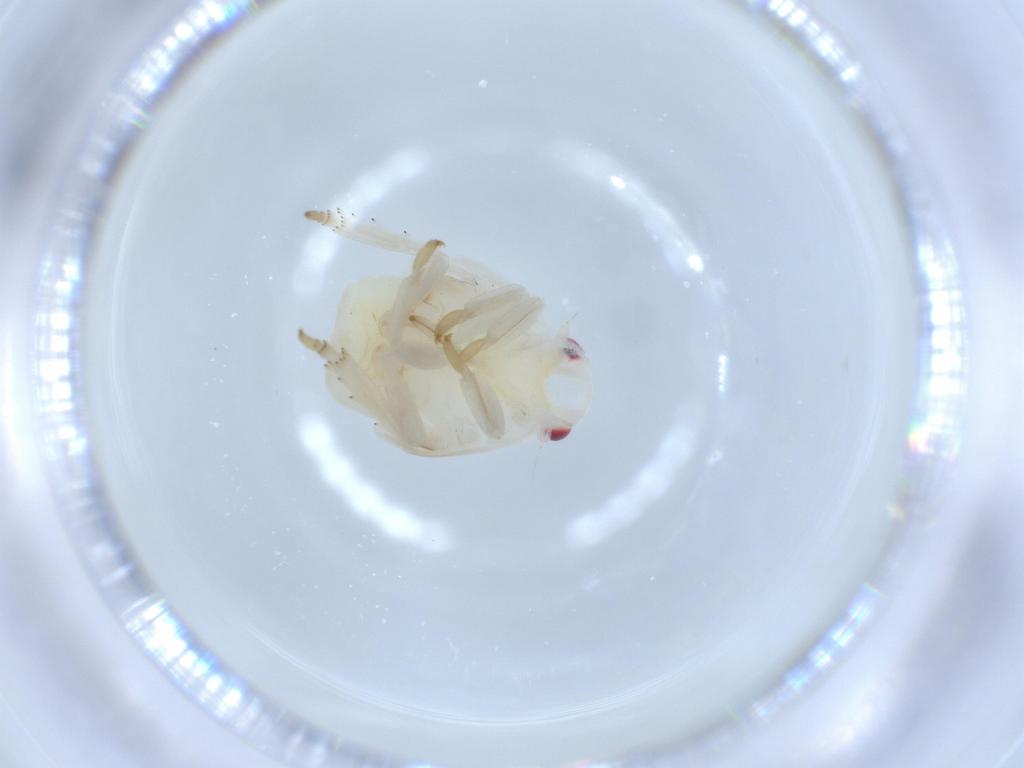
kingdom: Animalia
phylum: Arthropoda
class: Insecta
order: Hemiptera
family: Flatidae
